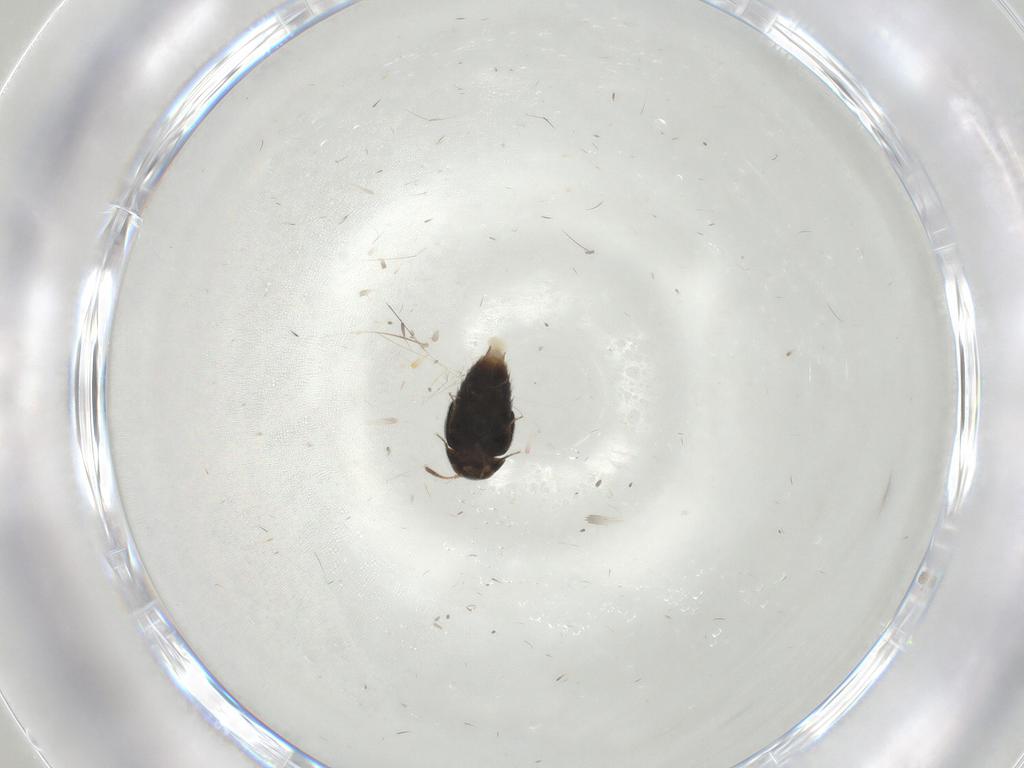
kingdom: Animalia
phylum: Arthropoda
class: Insecta
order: Coleoptera
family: Staphylinidae
